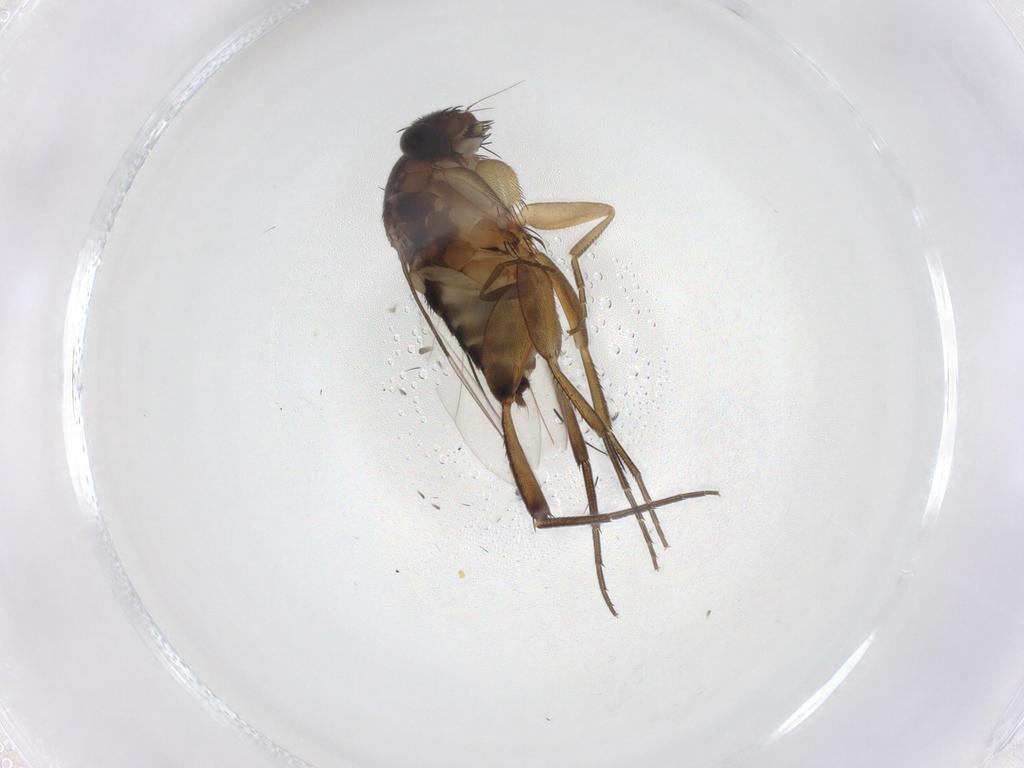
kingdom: Animalia
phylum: Arthropoda
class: Insecta
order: Diptera
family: Phoridae
